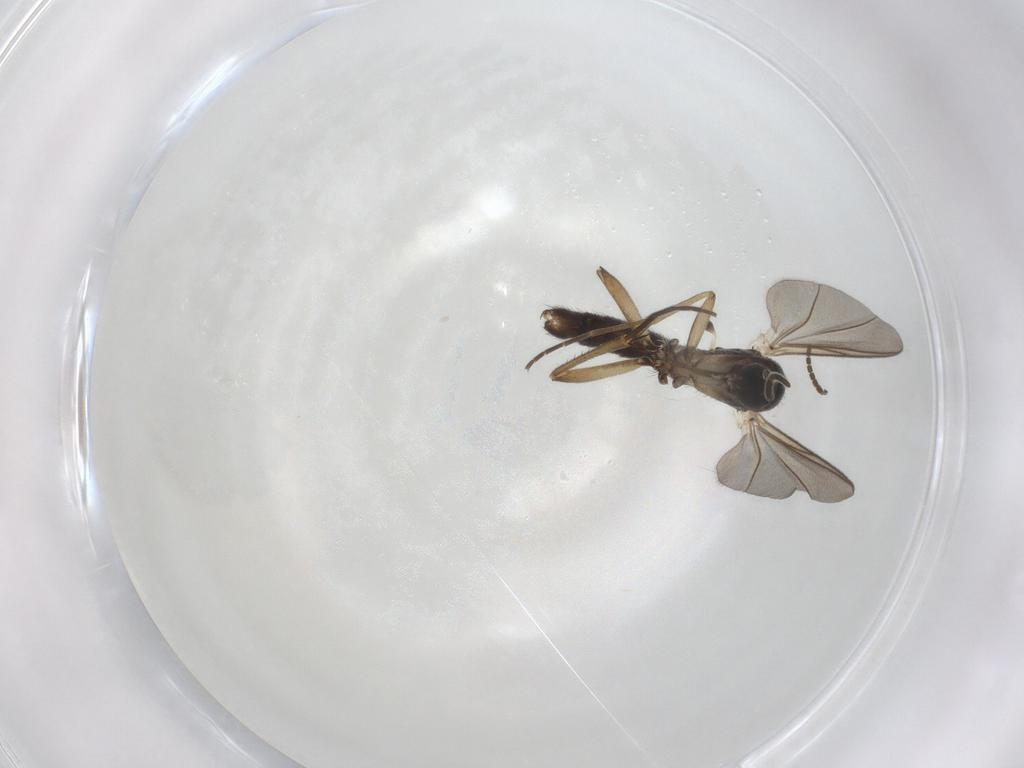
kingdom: Animalia
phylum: Arthropoda
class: Insecta
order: Diptera
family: Mycetophilidae
